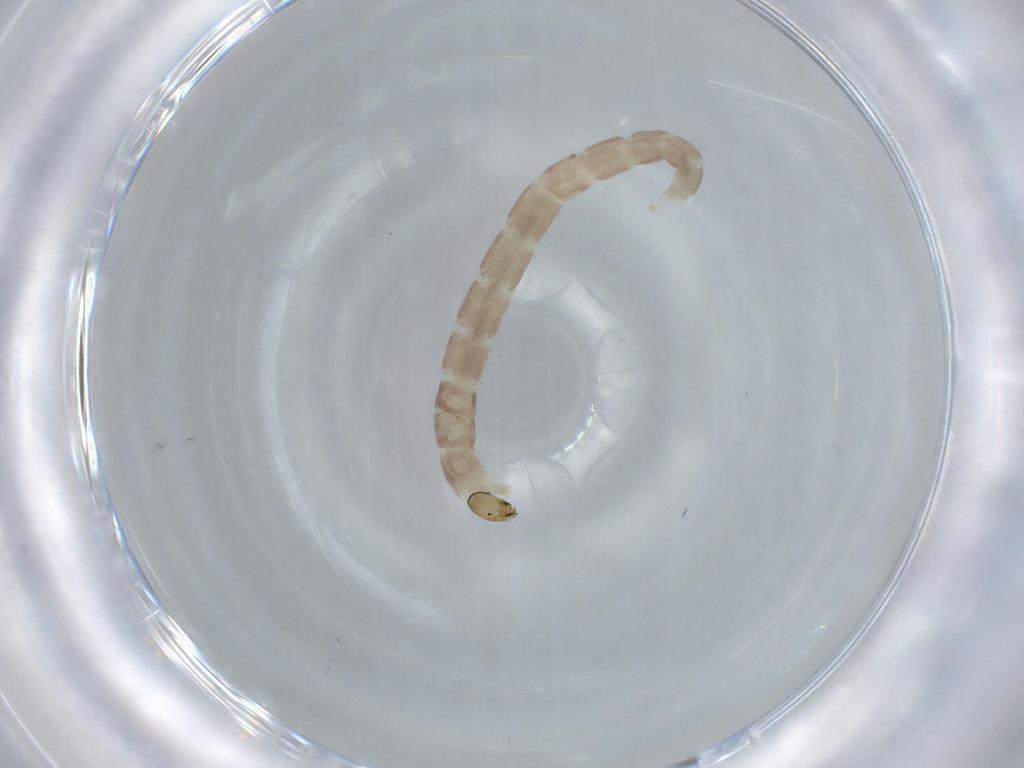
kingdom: Animalia
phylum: Arthropoda
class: Insecta
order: Diptera
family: Chironomidae
